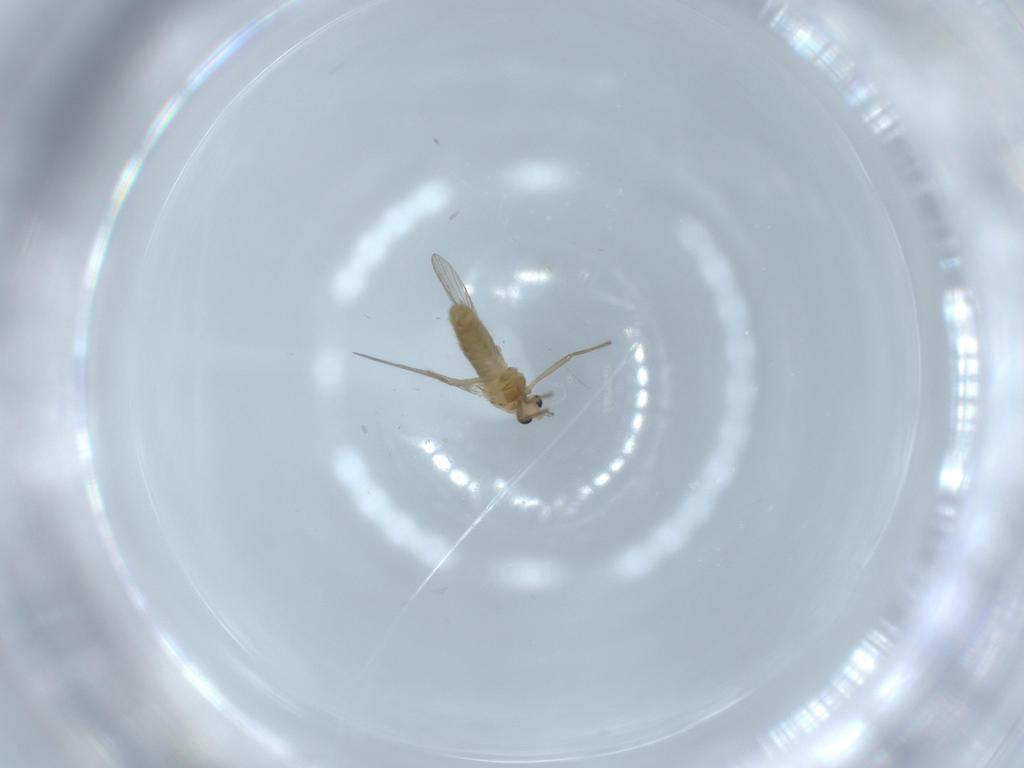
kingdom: Animalia
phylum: Arthropoda
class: Insecta
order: Diptera
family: Chironomidae
